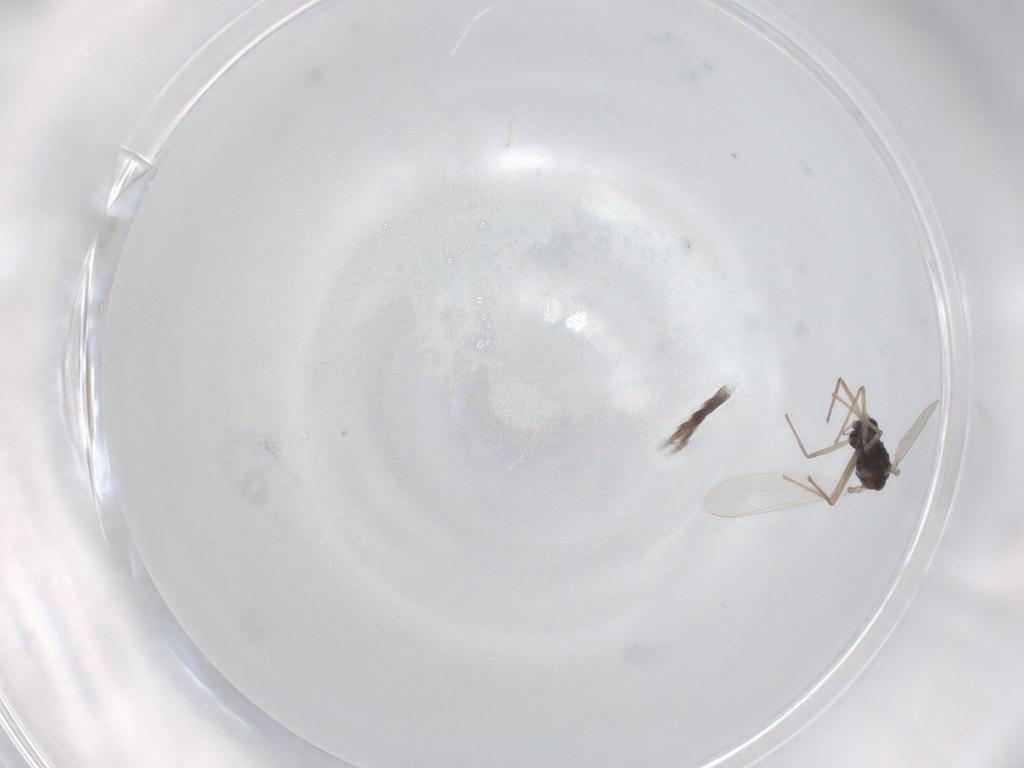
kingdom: Animalia
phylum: Arthropoda
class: Insecta
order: Diptera
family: Chironomidae
